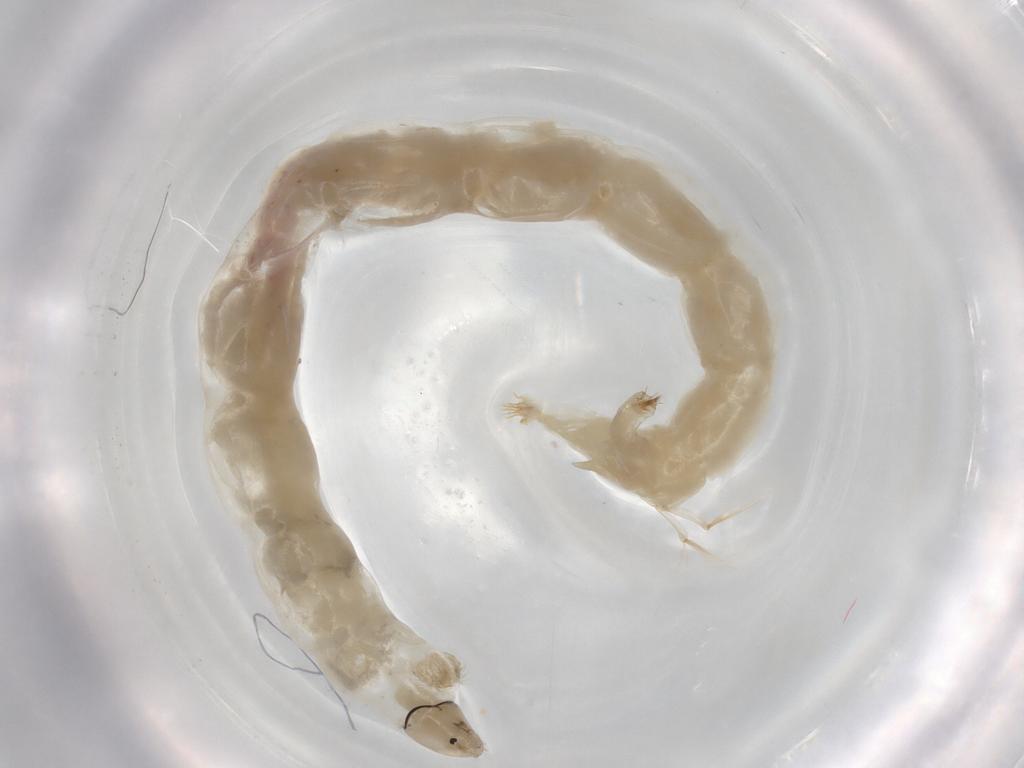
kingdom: Animalia
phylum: Arthropoda
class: Insecta
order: Diptera
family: Chironomidae
